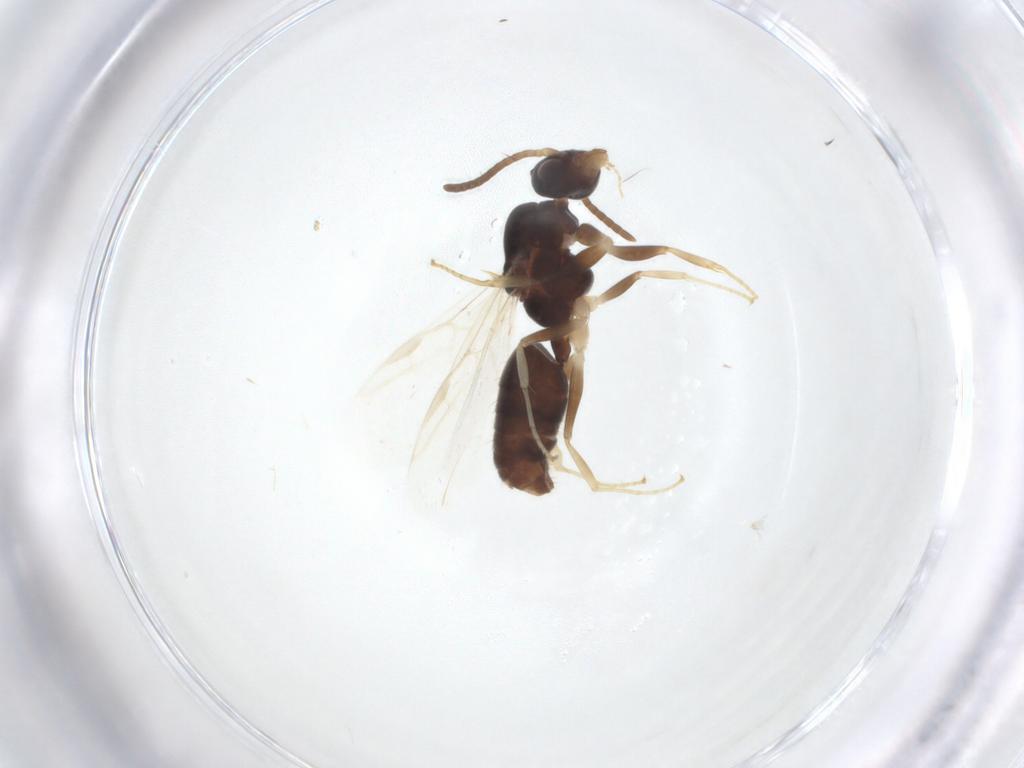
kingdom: Animalia
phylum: Arthropoda
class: Insecta
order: Hymenoptera
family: Formicidae
